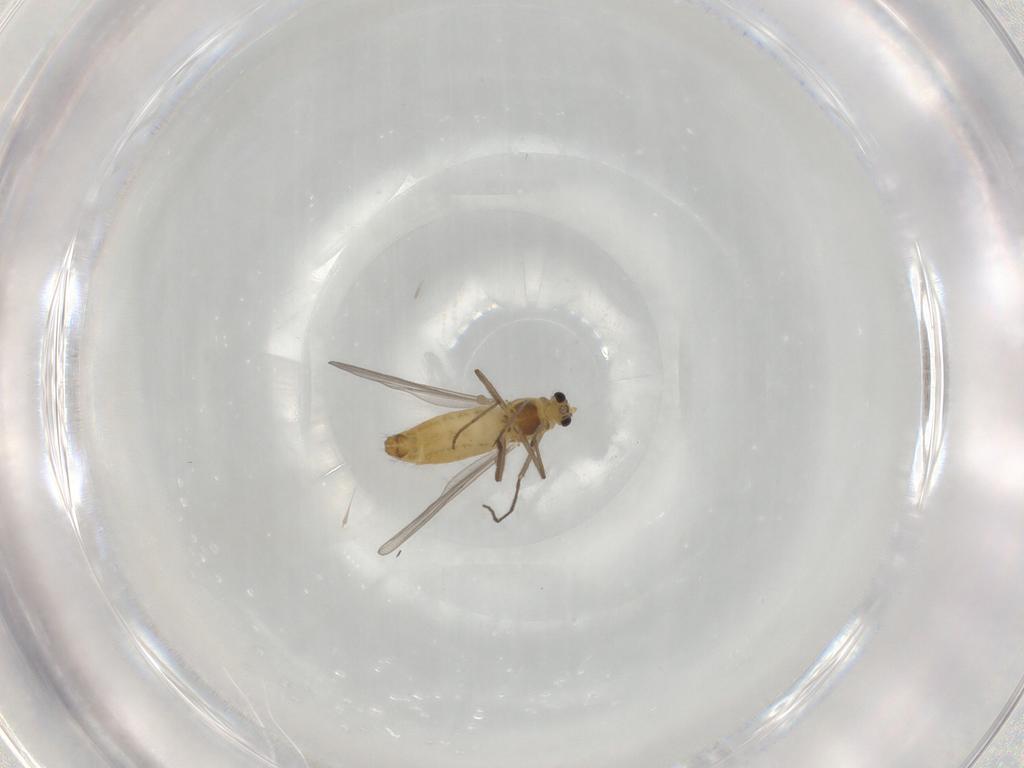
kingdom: Animalia
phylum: Arthropoda
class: Insecta
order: Diptera
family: Chironomidae
